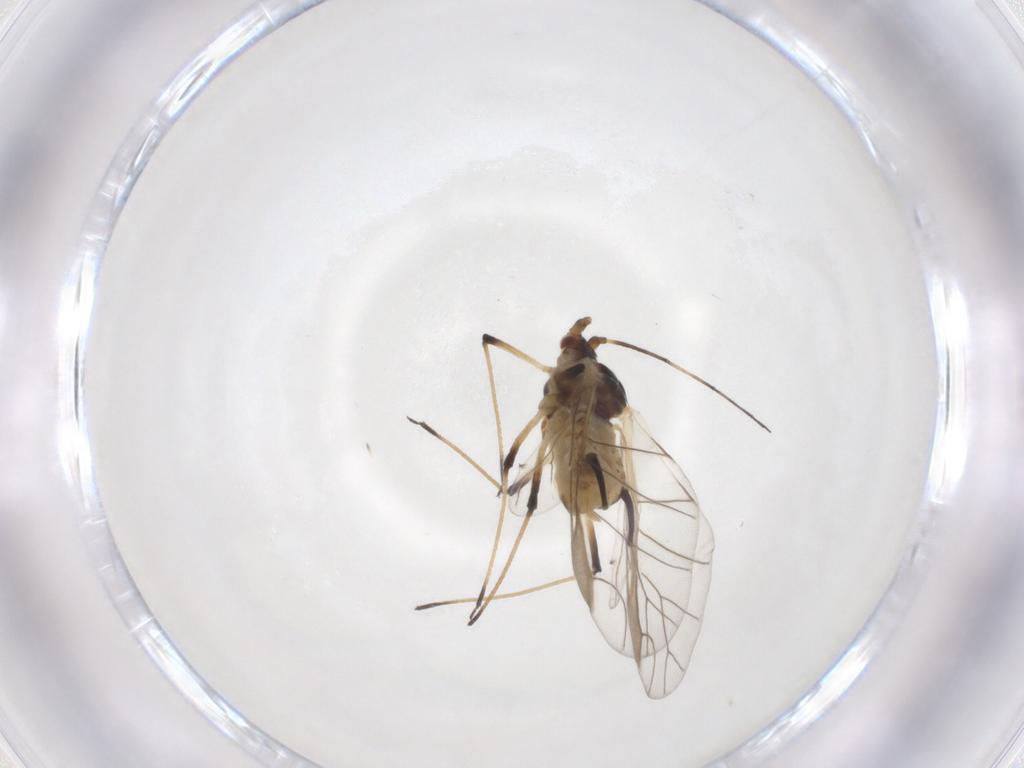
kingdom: Animalia
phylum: Arthropoda
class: Insecta
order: Hemiptera
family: Aphididae
